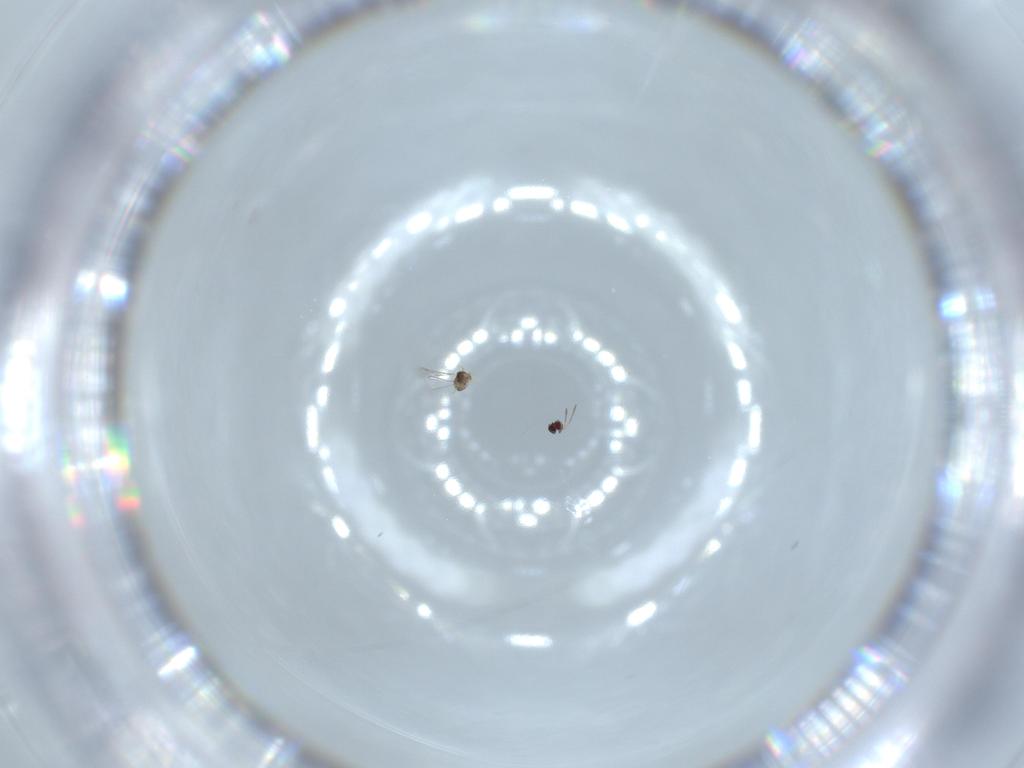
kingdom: Animalia
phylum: Arthropoda
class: Insecta
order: Hymenoptera
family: Mymaridae
